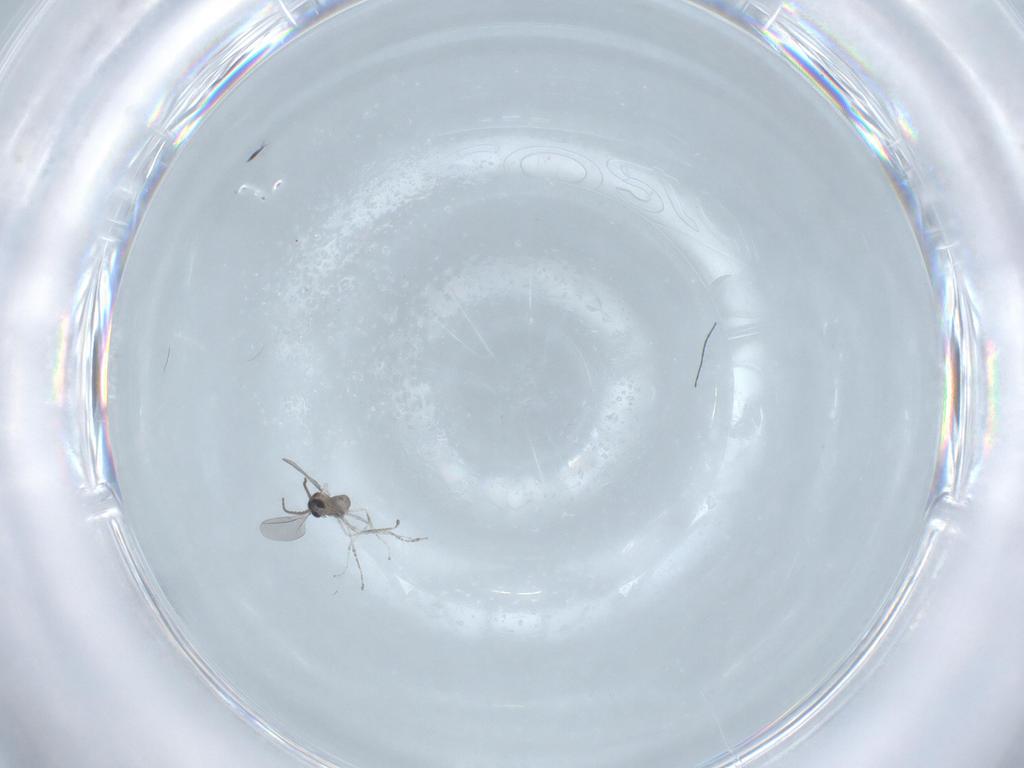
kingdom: Animalia
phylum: Arthropoda
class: Insecta
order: Diptera
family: Cecidomyiidae
